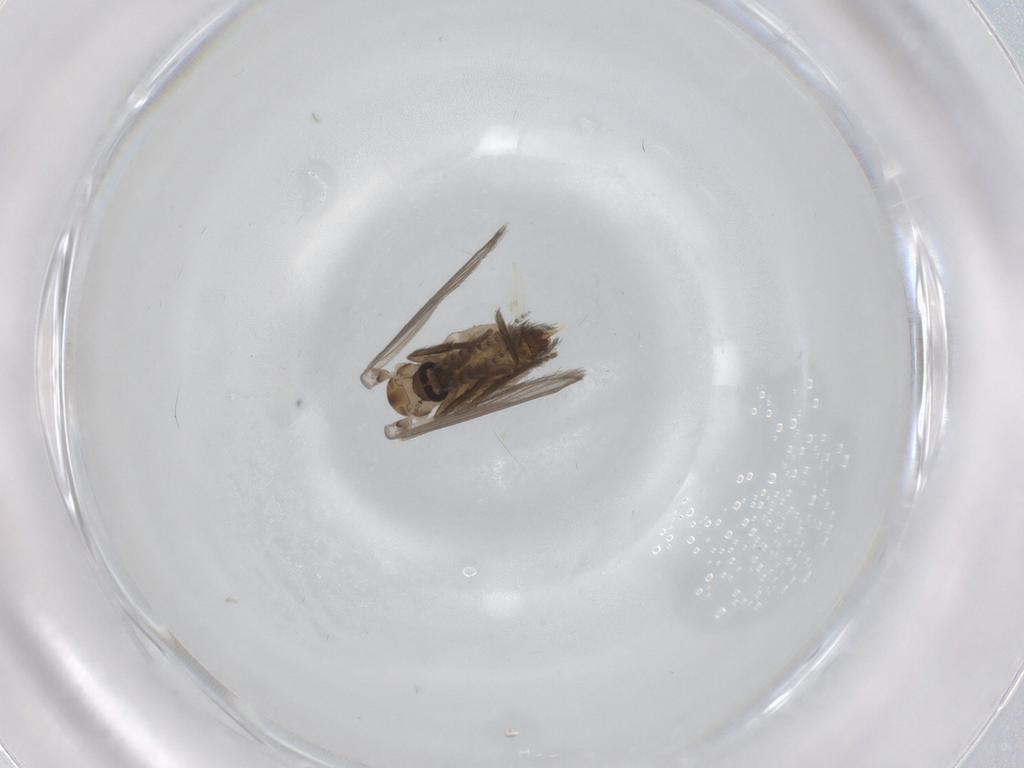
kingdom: Animalia
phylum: Arthropoda
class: Insecta
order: Diptera
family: Psychodidae
